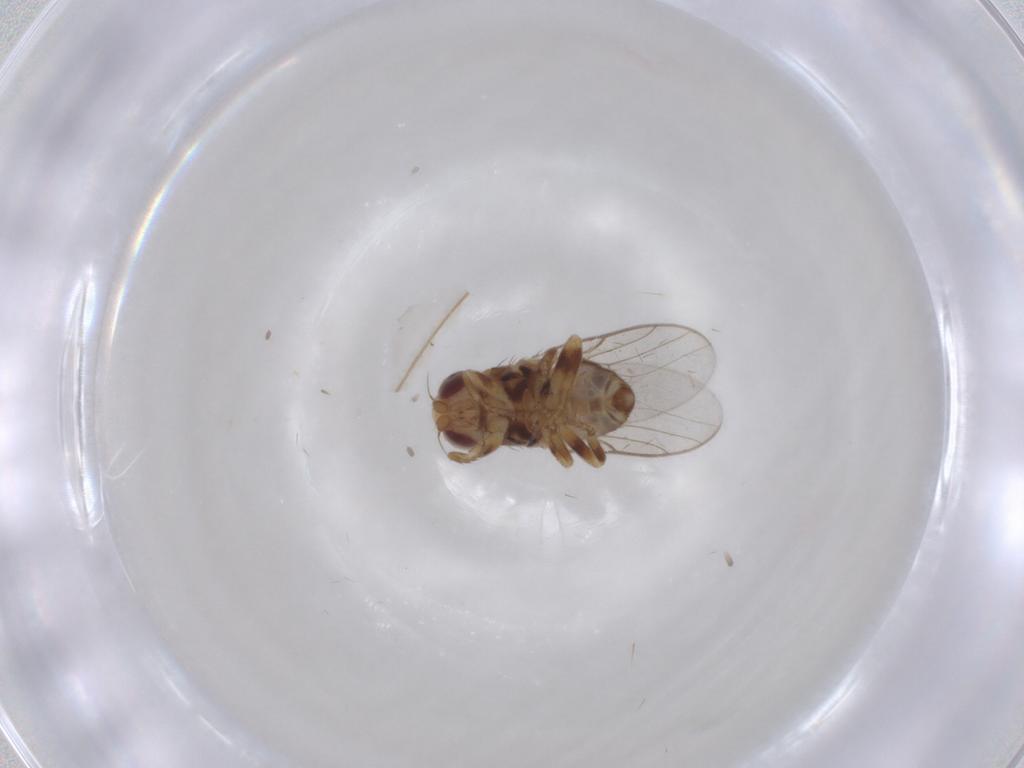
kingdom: Animalia
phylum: Arthropoda
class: Insecta
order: Diptera
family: Chloropidae
